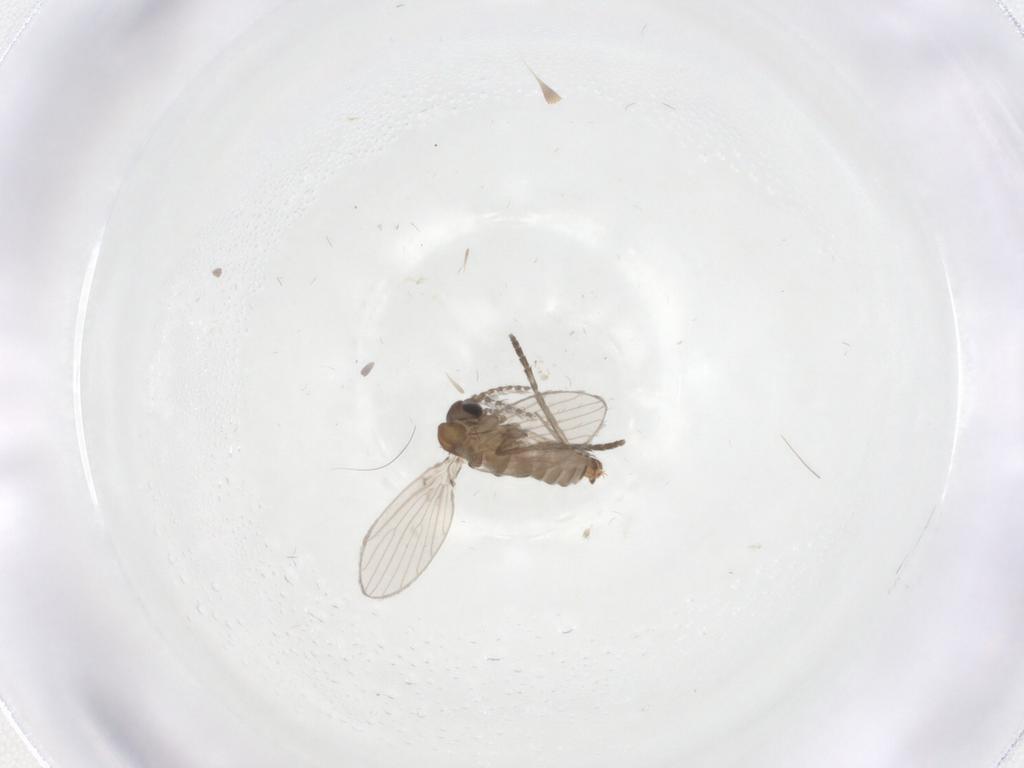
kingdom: Animalia
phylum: Arthropoda
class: Insecta
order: Diptera
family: Psychodidae
